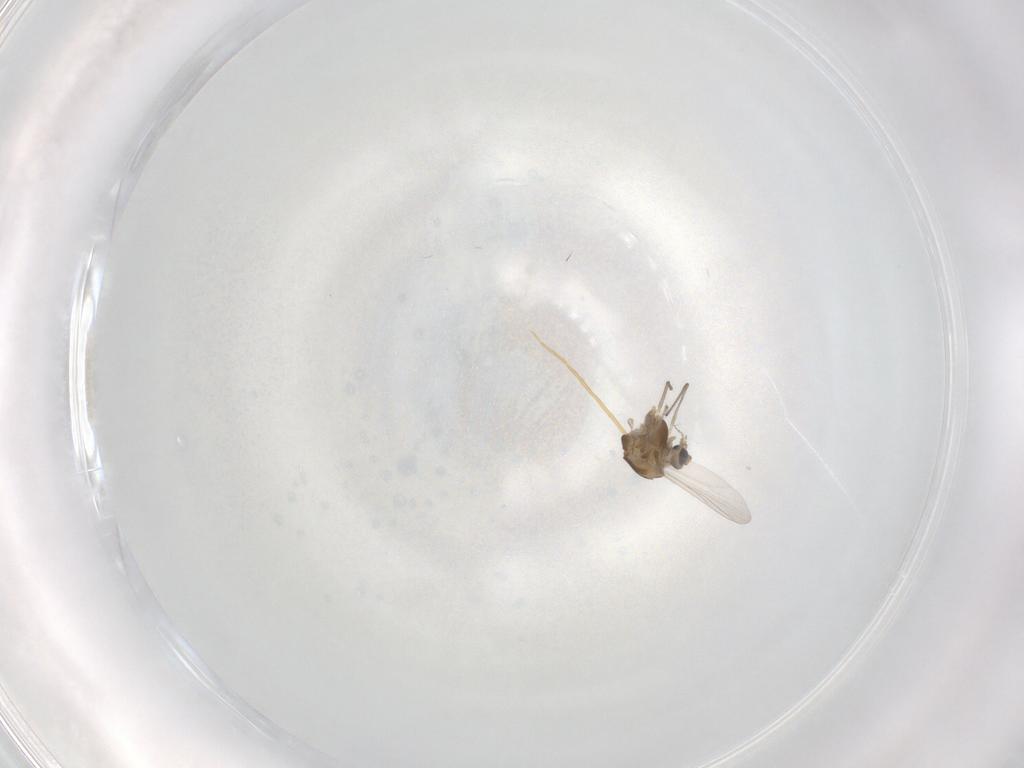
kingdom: Animalia
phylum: Arthropoda
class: Insecta
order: Diptera
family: Chironomidae
